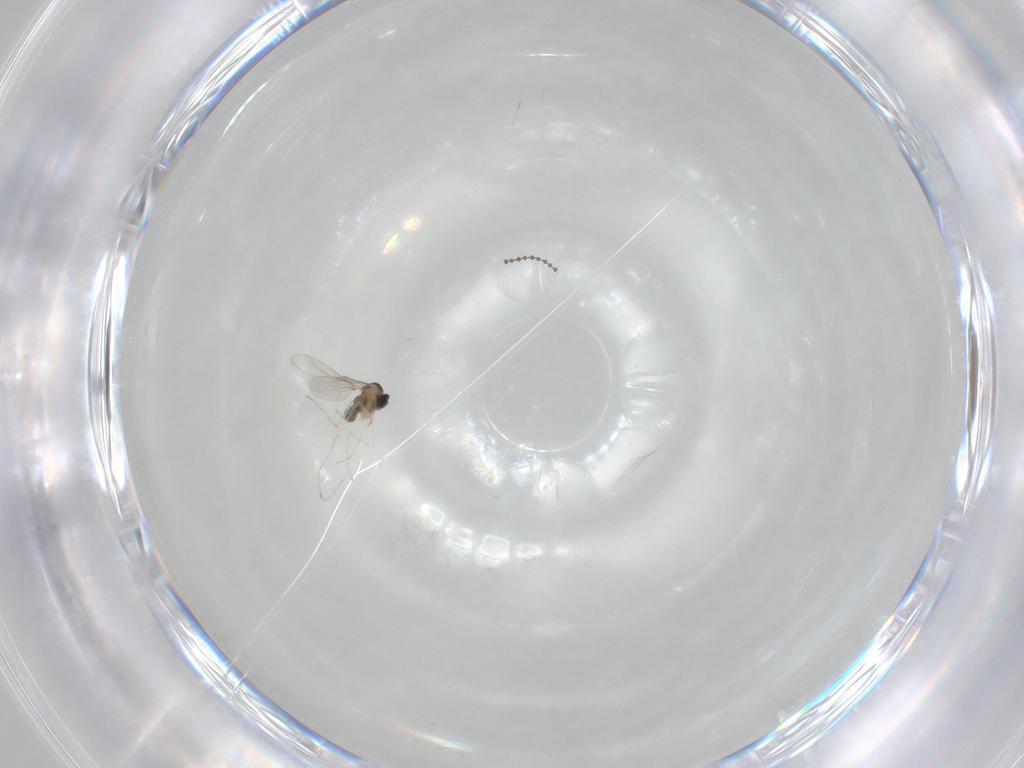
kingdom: Animalia
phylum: Arthropoda
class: Insecta
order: Diptera
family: Cecidomyiidae
